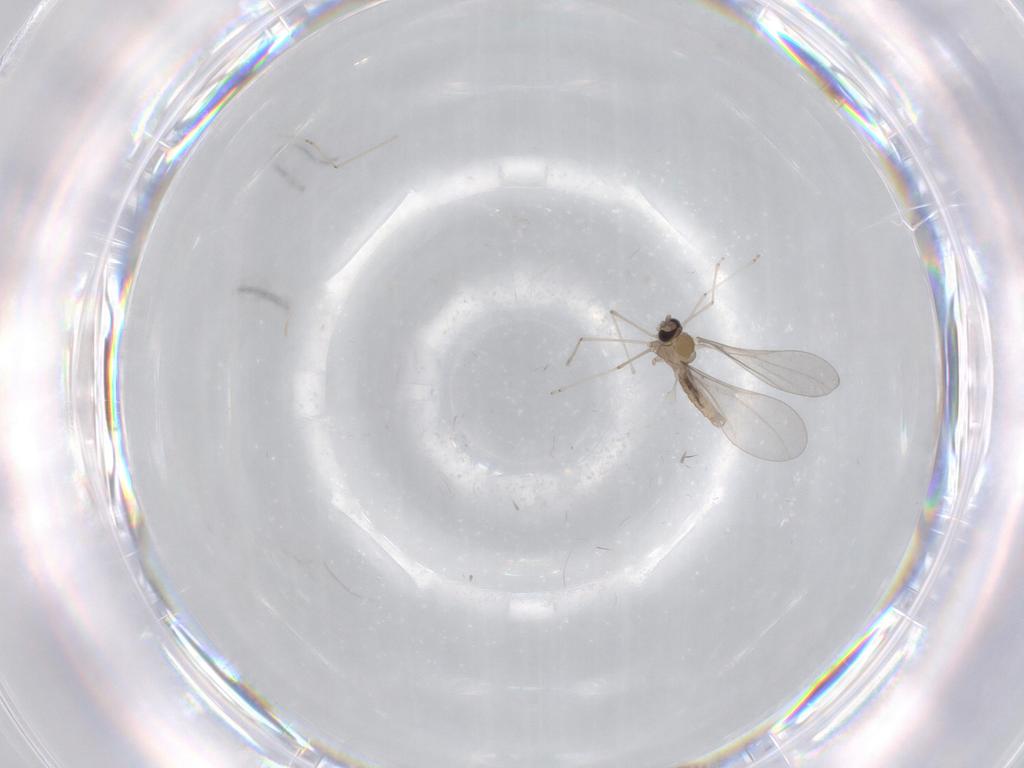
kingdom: Animalia
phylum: Arthropoda
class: Insecta
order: Diptera
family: Cecidomyiidae
